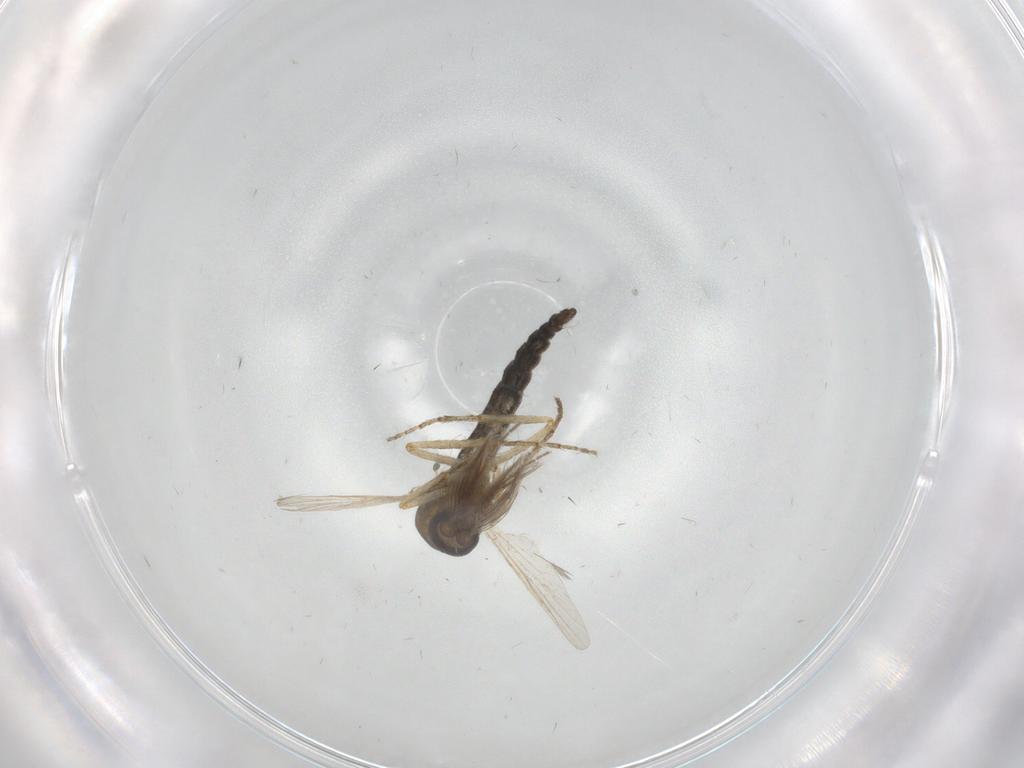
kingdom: Animalia
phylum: Arthropoda
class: Insecta
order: Diptera
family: Ceratopogonidae
